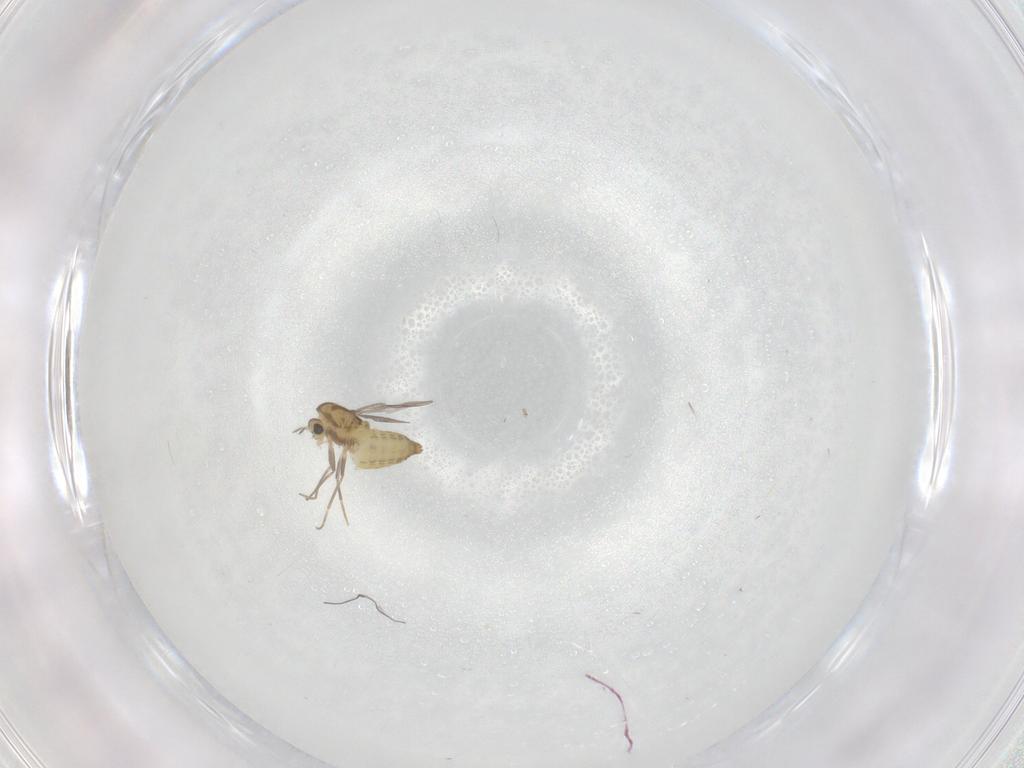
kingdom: Animalia
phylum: Arthropoda
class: Insecta
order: Diptera
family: Chironomidae
